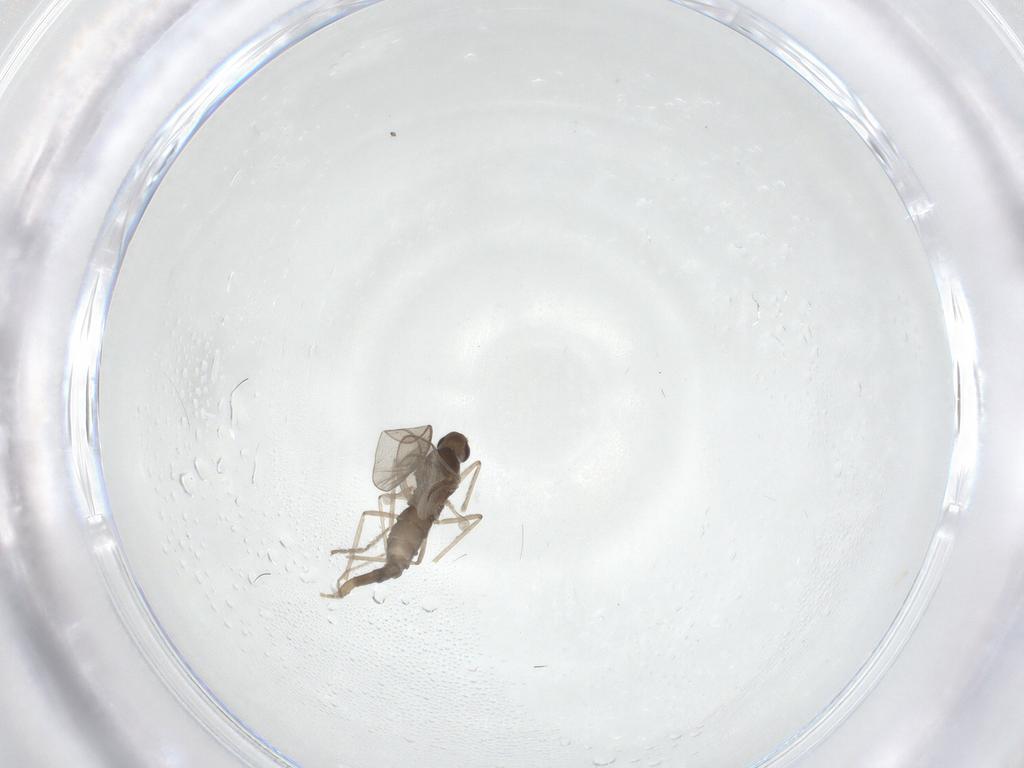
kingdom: Animalia
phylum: Arthropoda
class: Insecta
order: Diptera
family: Cecidomyiidae
